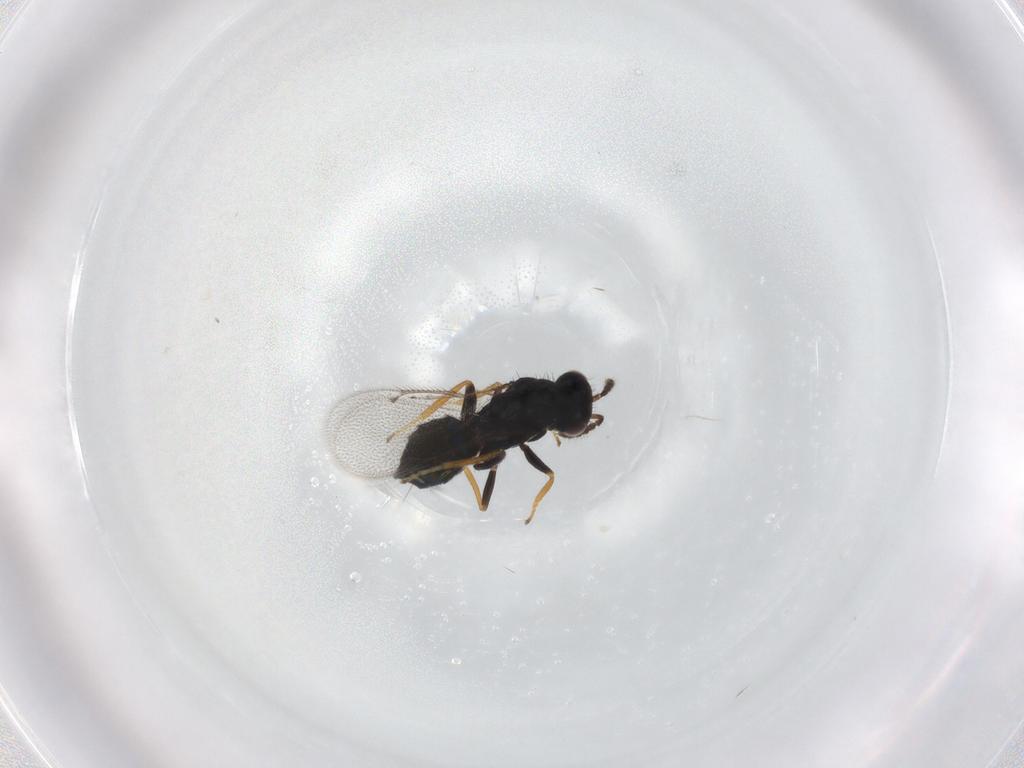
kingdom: Animalia
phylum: Arthropoda
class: Insecta
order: Hymenoptera
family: Eulophidae
